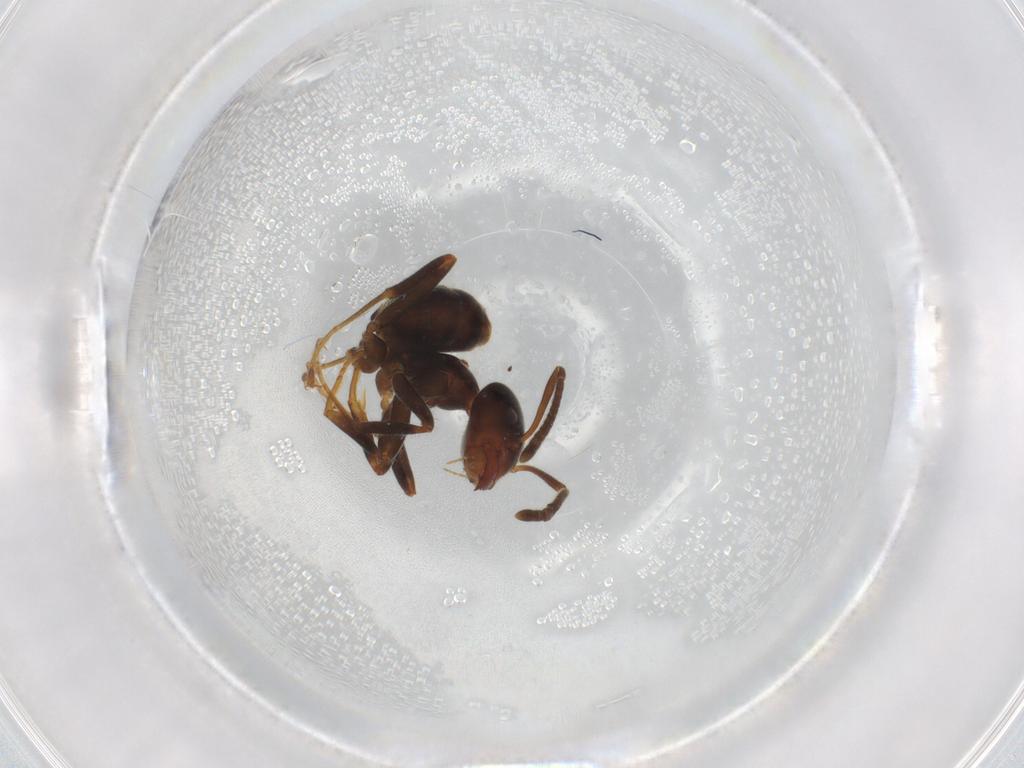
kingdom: Animalia
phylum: Arthropoda
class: Insecta
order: Hymenoptera
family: Formicidae
